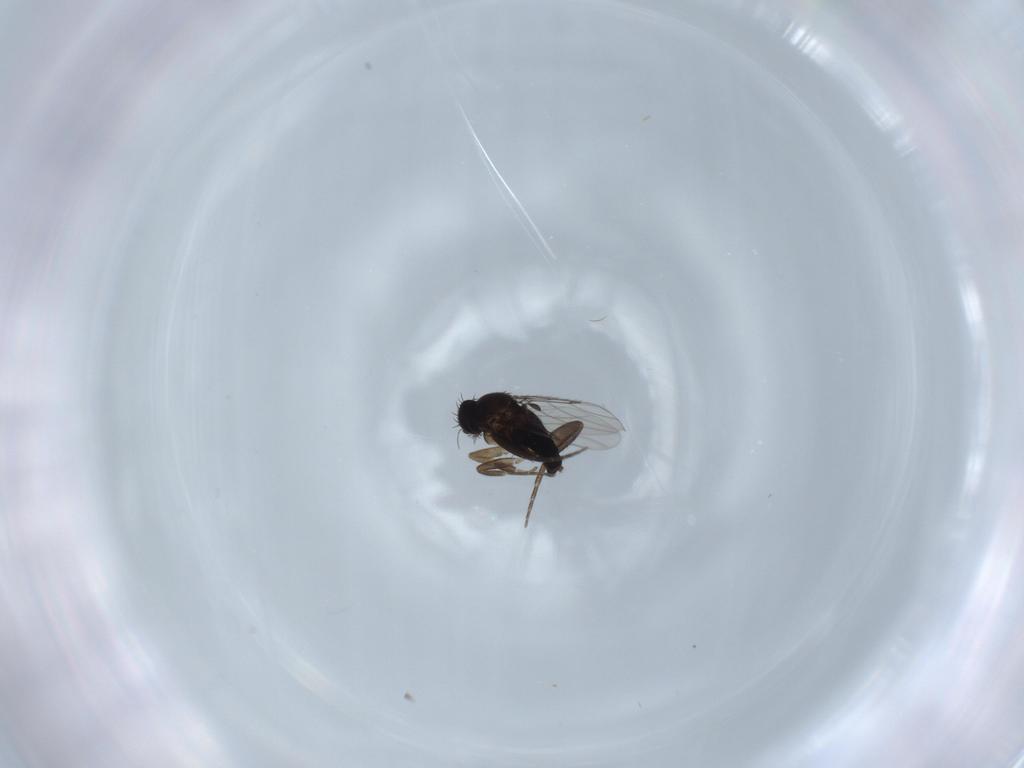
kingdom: Animalia
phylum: Arthropoda
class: Insecta
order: Diptera
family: Phoridae
